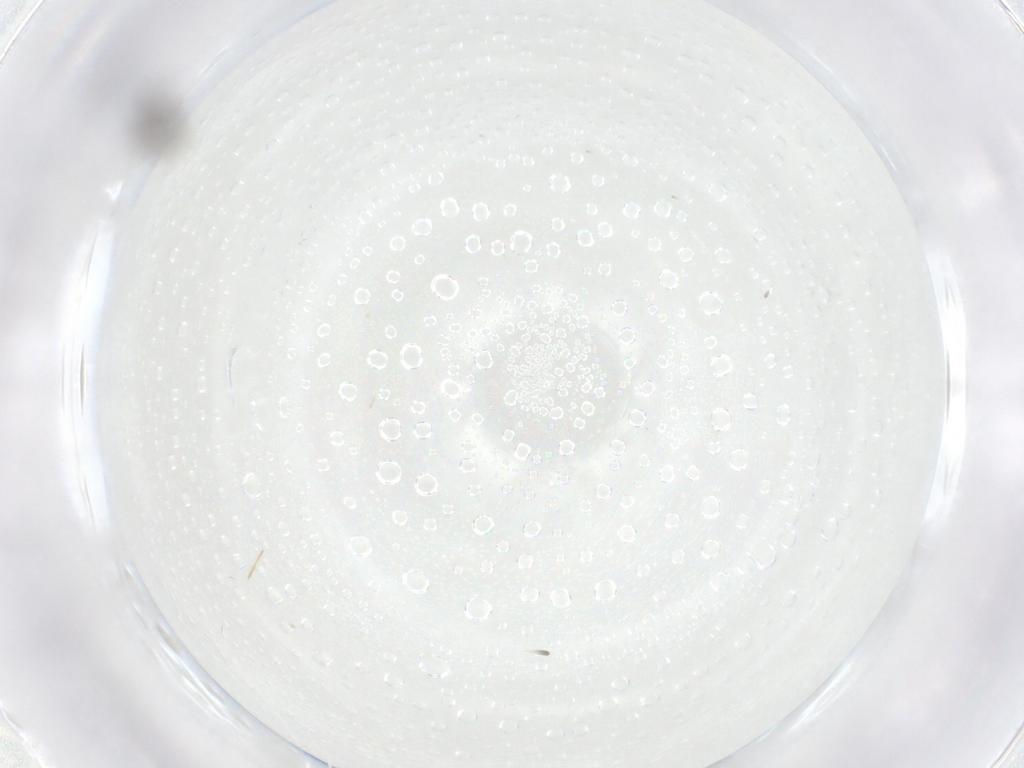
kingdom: Animalia
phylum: Arthropoda
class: Insecta
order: Diptera
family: Chironomidae
